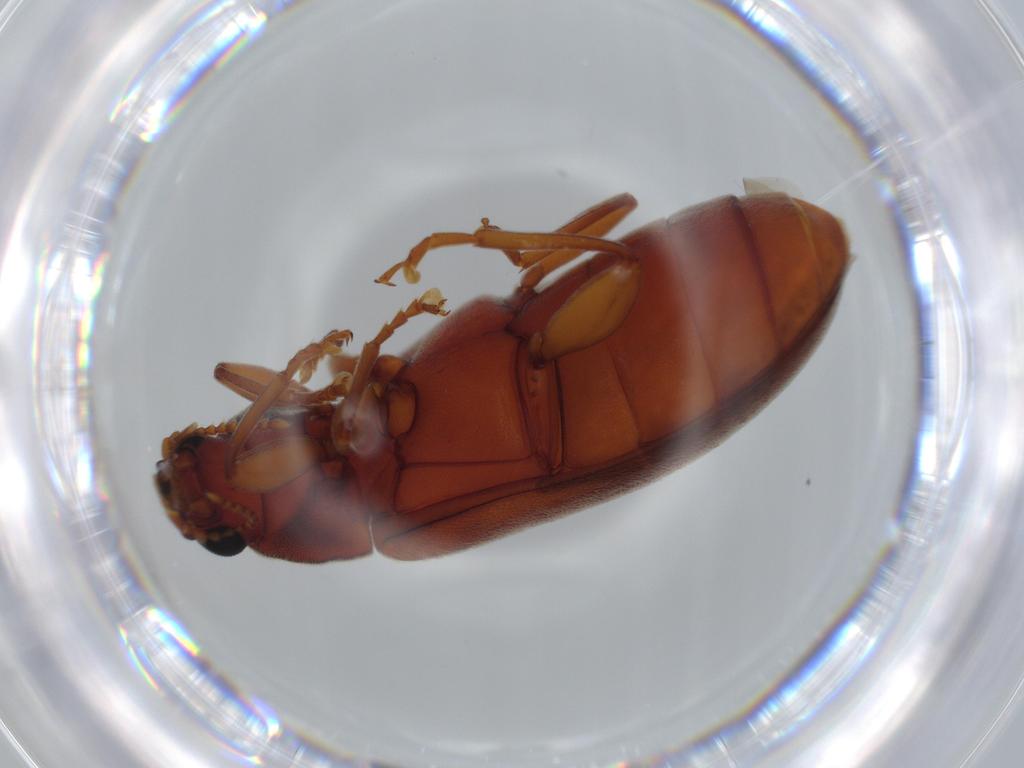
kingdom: Animalia
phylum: Arthropoda
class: Insecta
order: Coleoptera
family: Mycteridae
